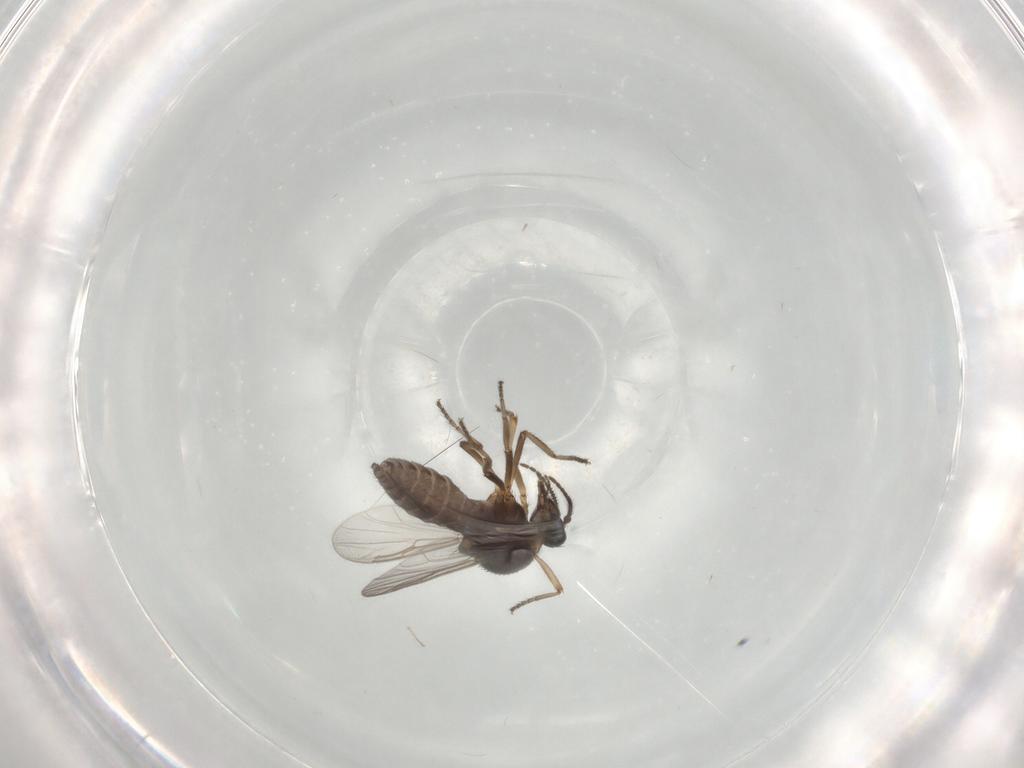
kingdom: Animalia
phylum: Arthropoda
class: Insecta
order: Diptera
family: Ceratopogonidae
